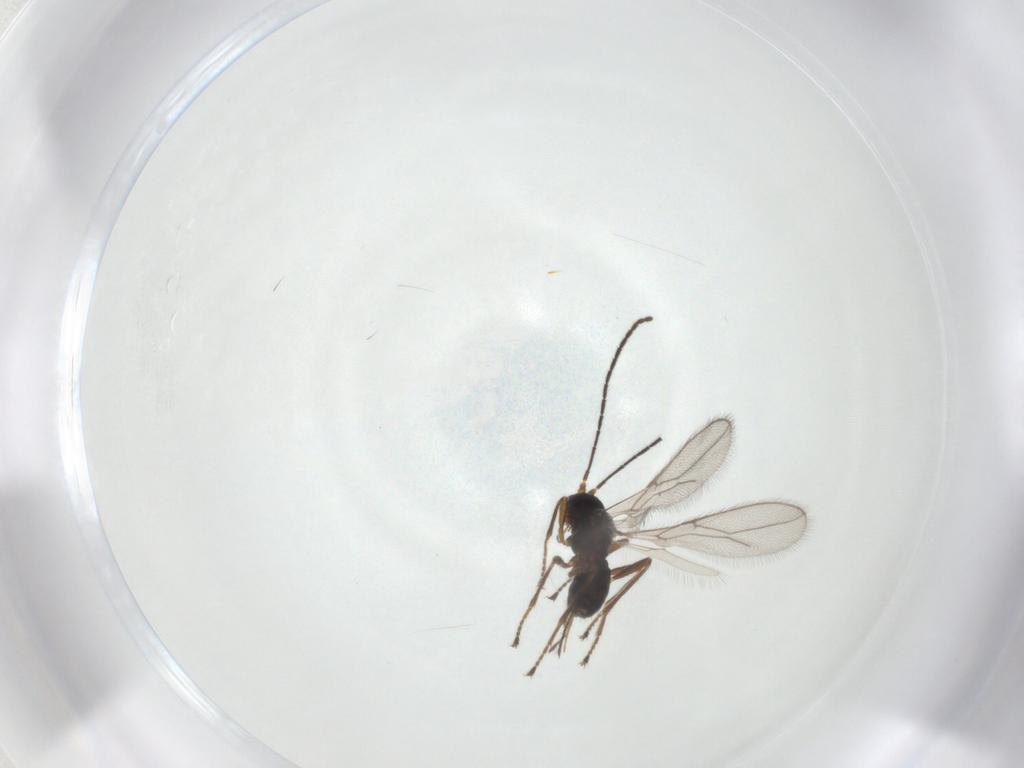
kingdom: Animalia
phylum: Arthropoda
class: Insecta
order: Hymenoptera
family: Braconidae
